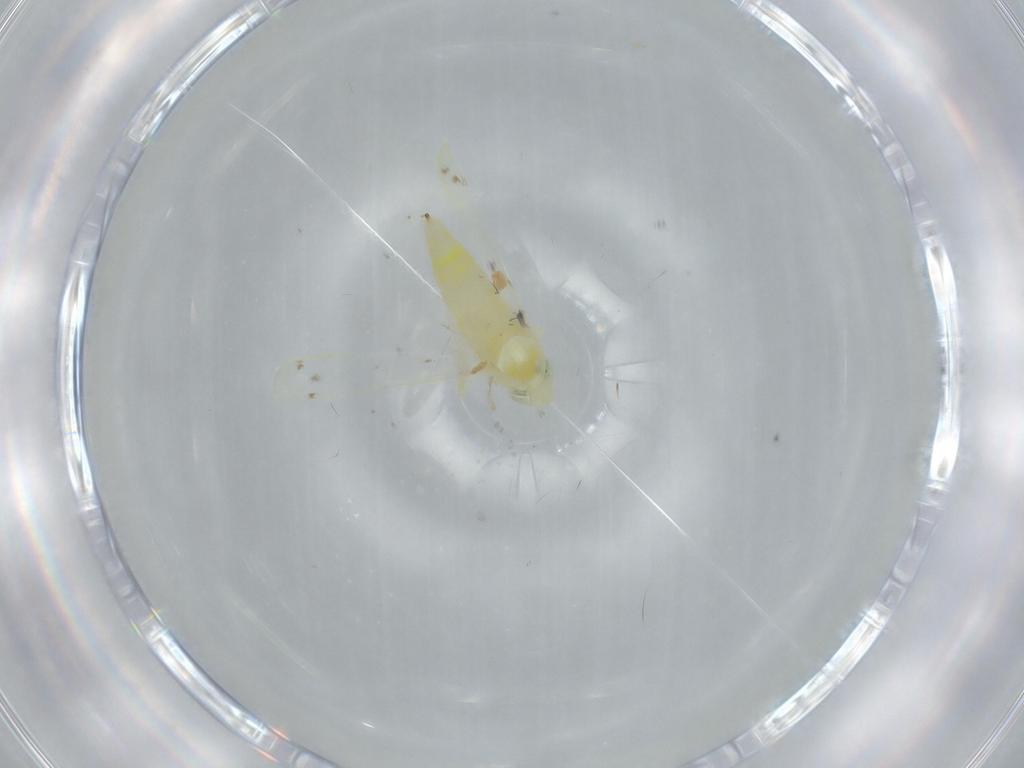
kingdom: Animalia
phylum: Arthropoda
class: Insecta
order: Hemiptera
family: Cicadellidae
